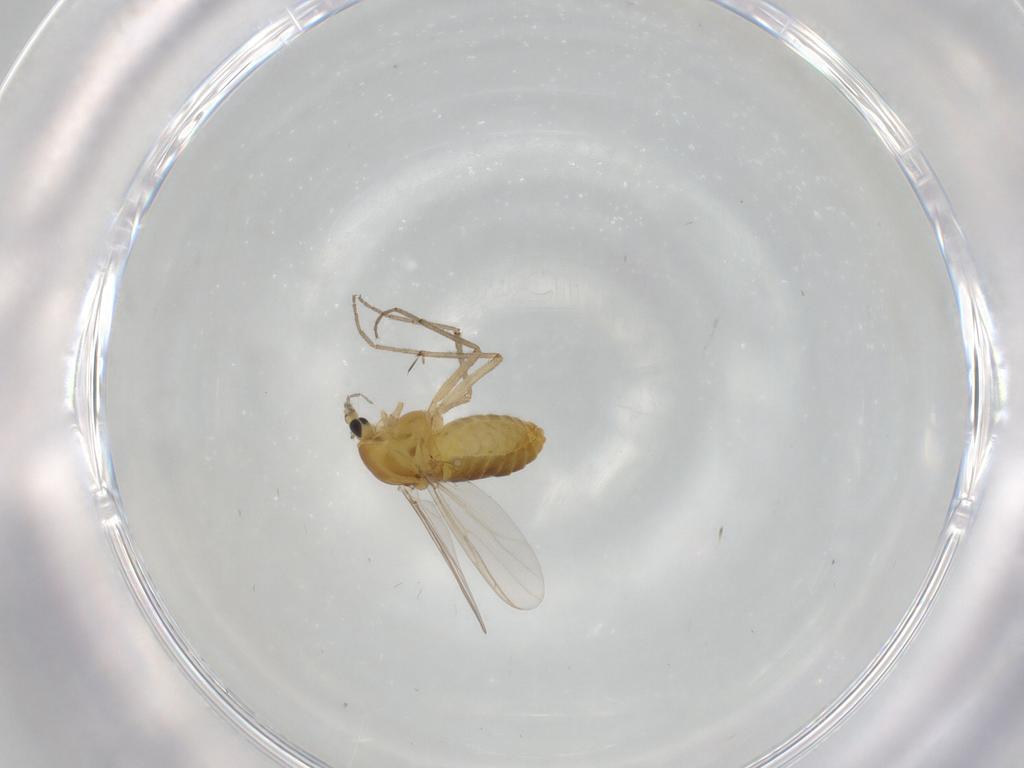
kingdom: Animalia
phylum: Arthropoda
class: Insecta
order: Diptera
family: Chironomidae
